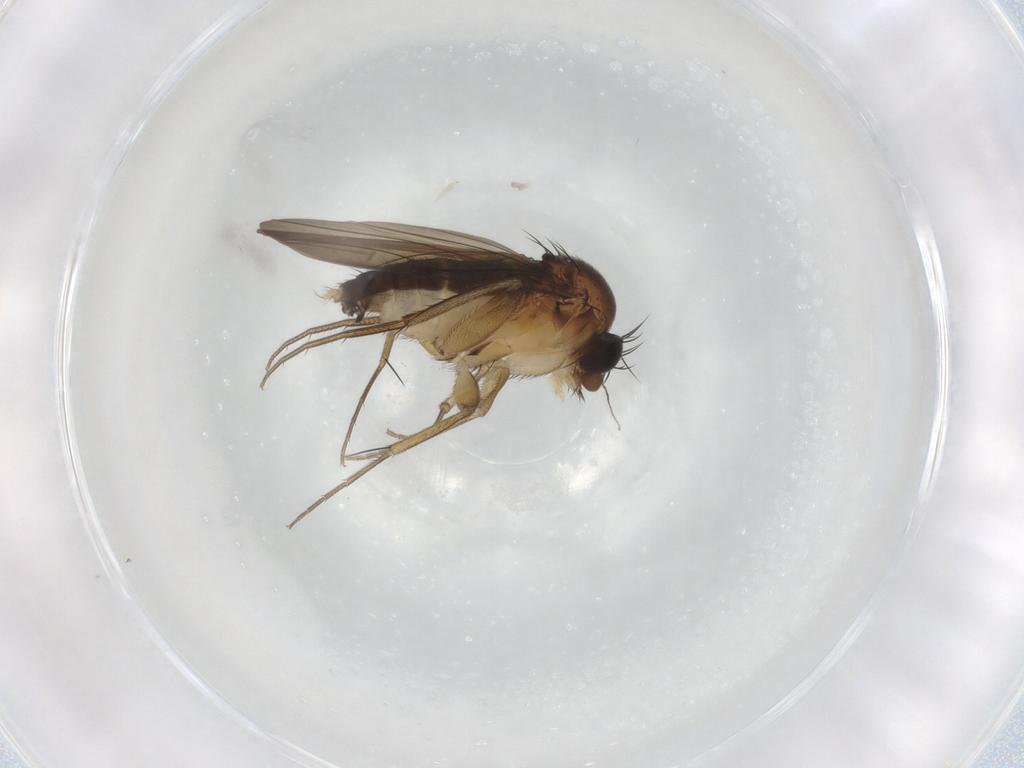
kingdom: Animalia
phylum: Arthropoda
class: Insecta
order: Diptera
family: Phoridae
